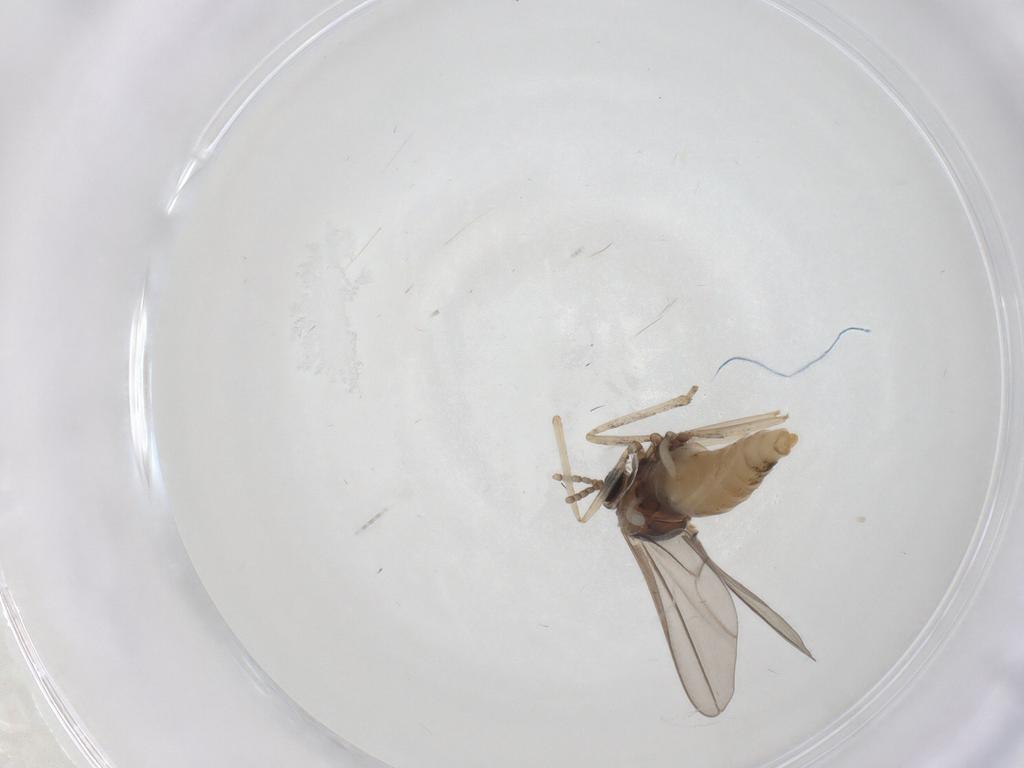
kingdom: Animalia
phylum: Arthropoda
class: Insecta
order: Diptera
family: Cecidomyiidae
